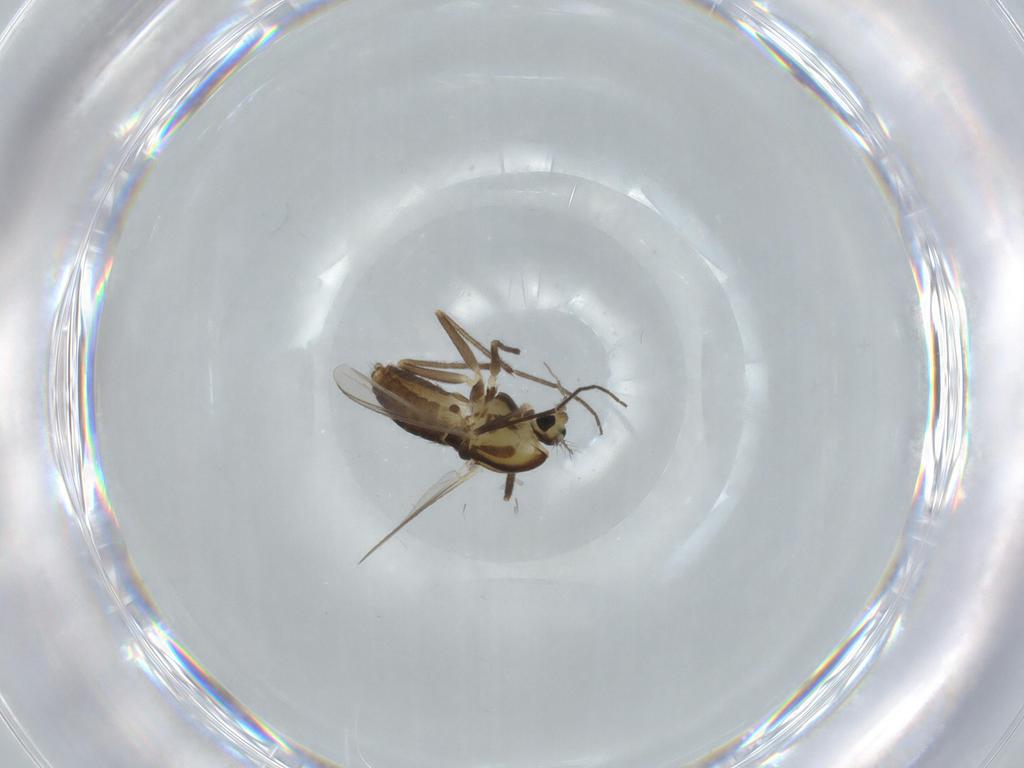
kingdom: Animalia
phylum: Arthropoda
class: Insecta
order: Diptera
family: Chironomidae
